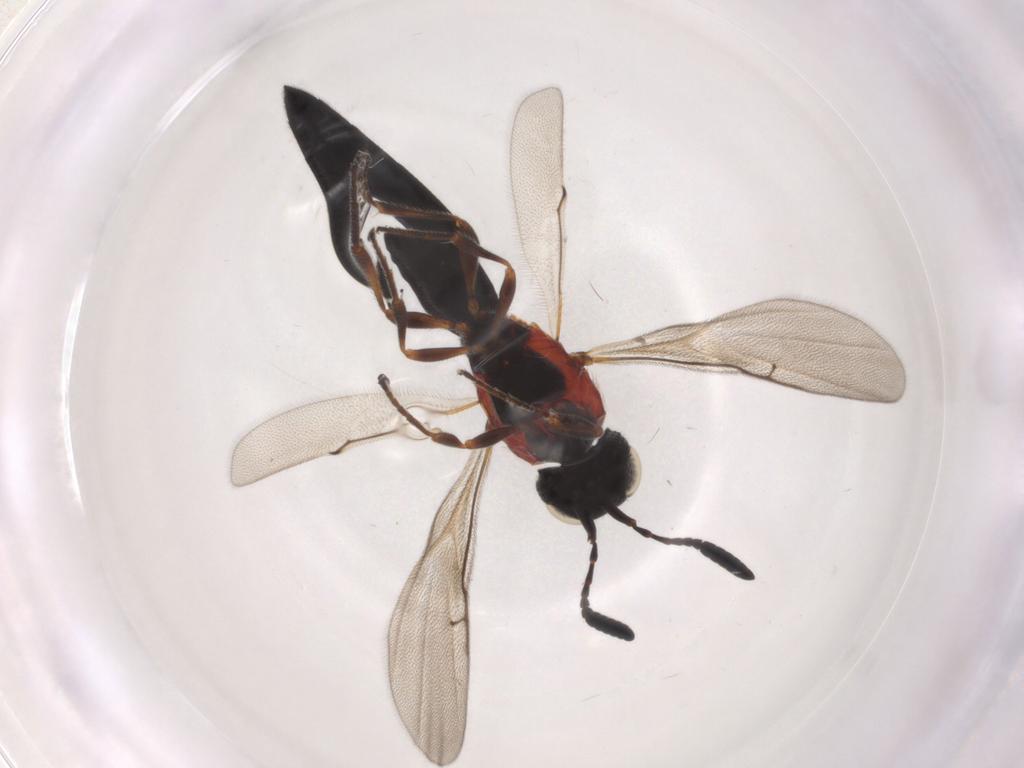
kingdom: Animalia
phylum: Arthropoda
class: Insecta
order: Hymenoptera
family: Scelionidae
